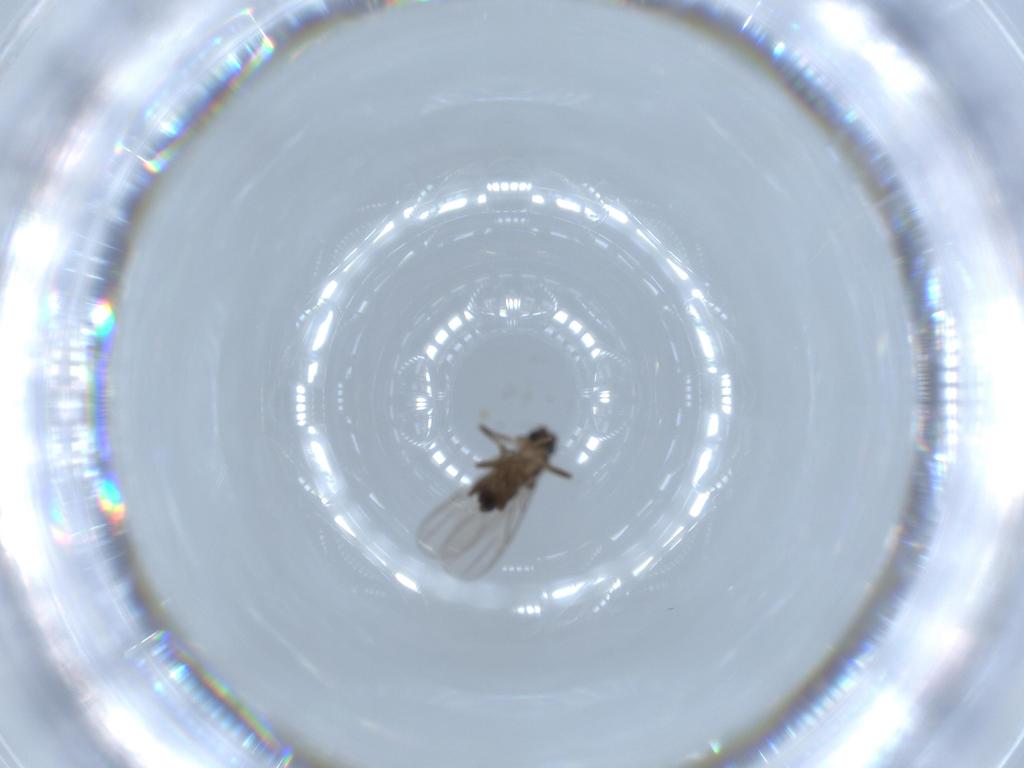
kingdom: Animalia
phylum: Arthropoda
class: Insecta
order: Diptera
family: Phoridae
